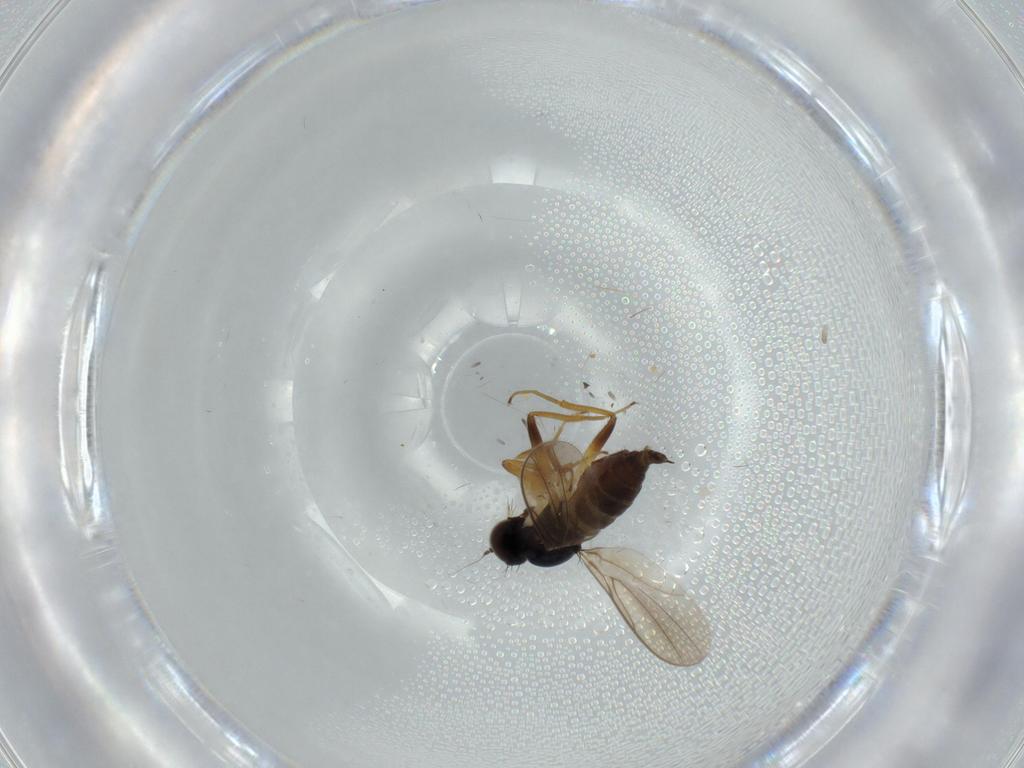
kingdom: Animalia
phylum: Arthropoda
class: Insecta
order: Diptera
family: Hybotidae
